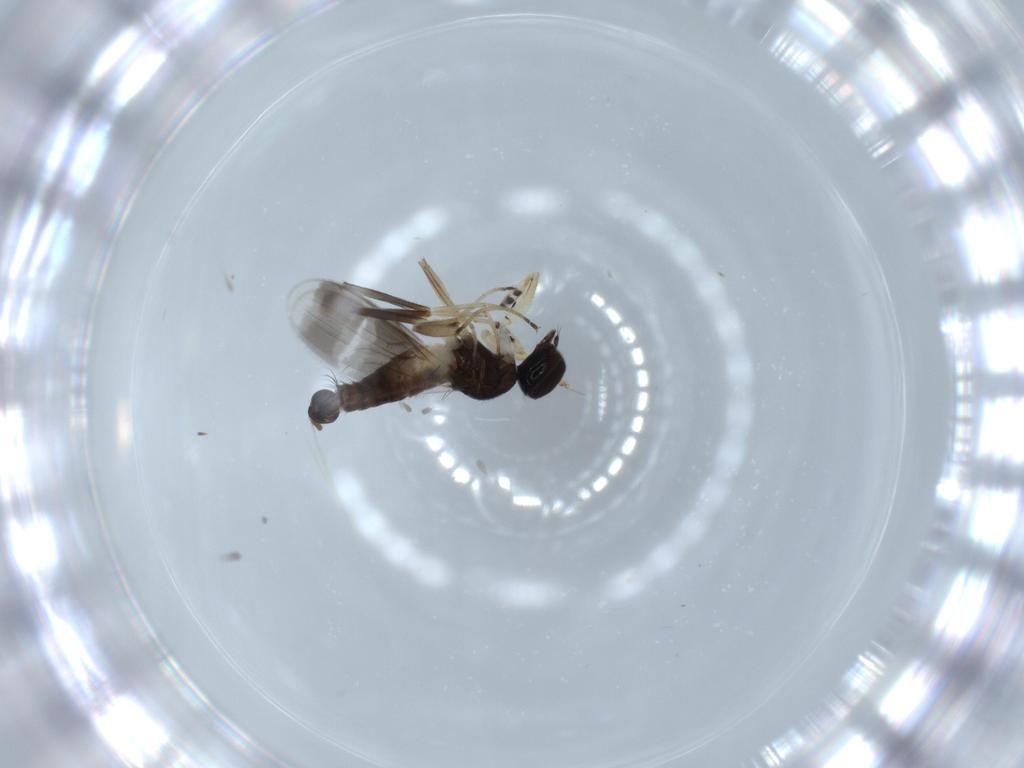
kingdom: Animalia
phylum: Arthropoda
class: Insecta
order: Diptera
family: Hybotidae
